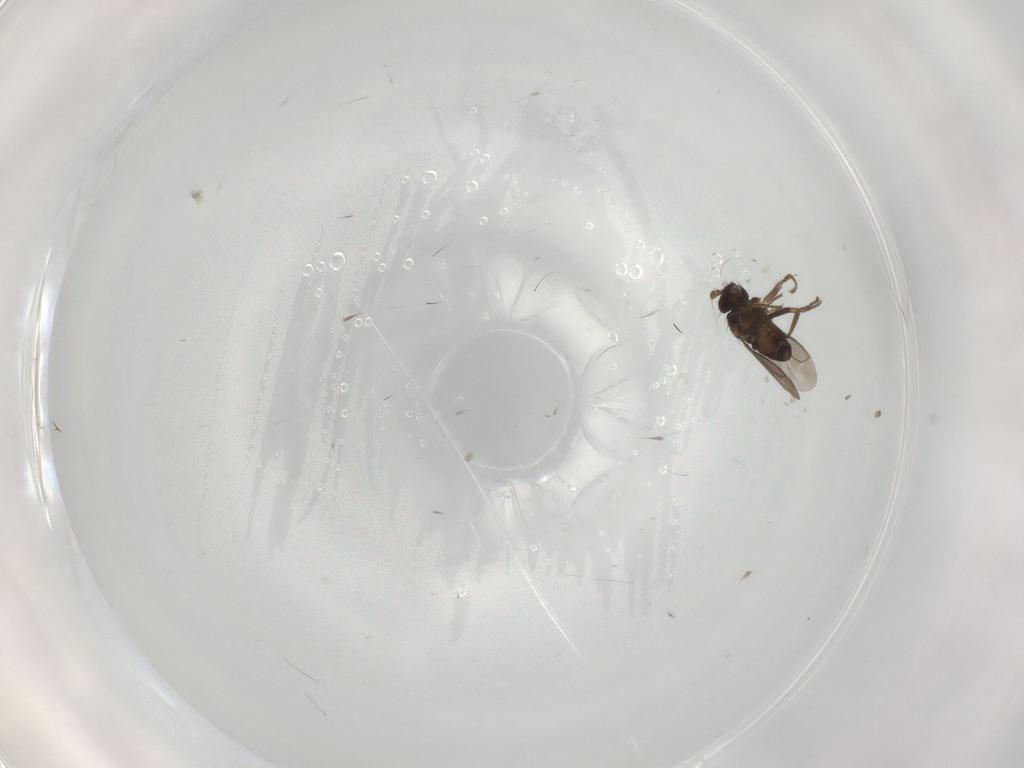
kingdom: Animalia
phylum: Arthropoda
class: Insecta
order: Diptera
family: Sphaeroceridae
